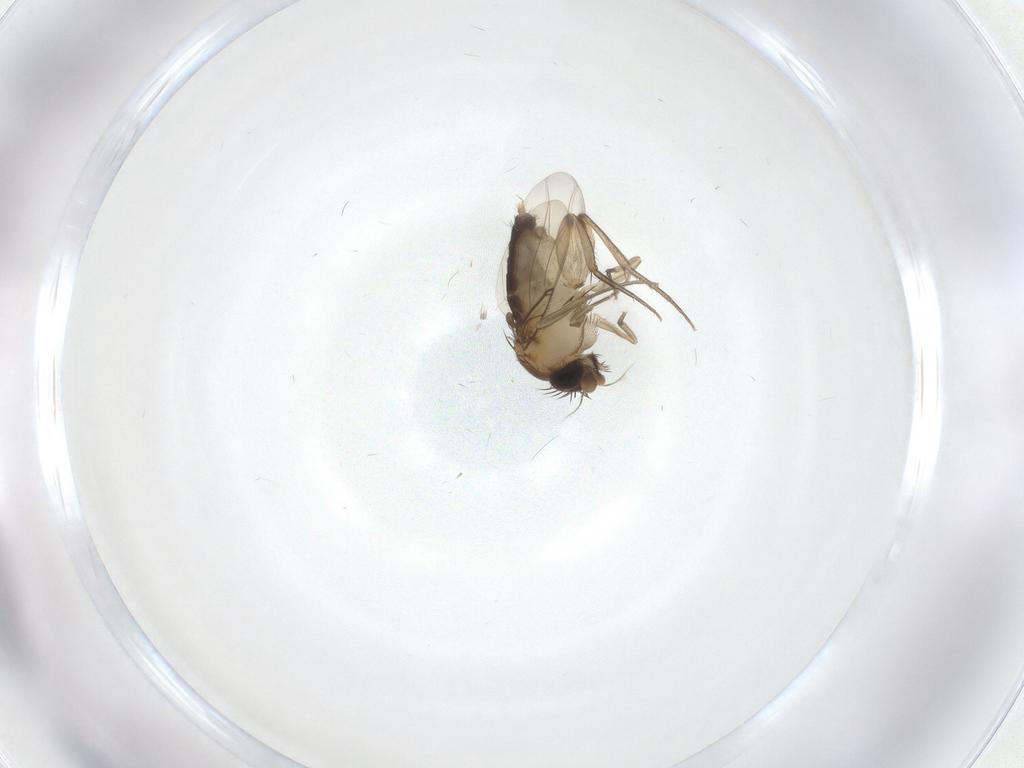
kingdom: Animalia
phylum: Arthropoda
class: Insecta
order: Diptera
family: Phoridae
